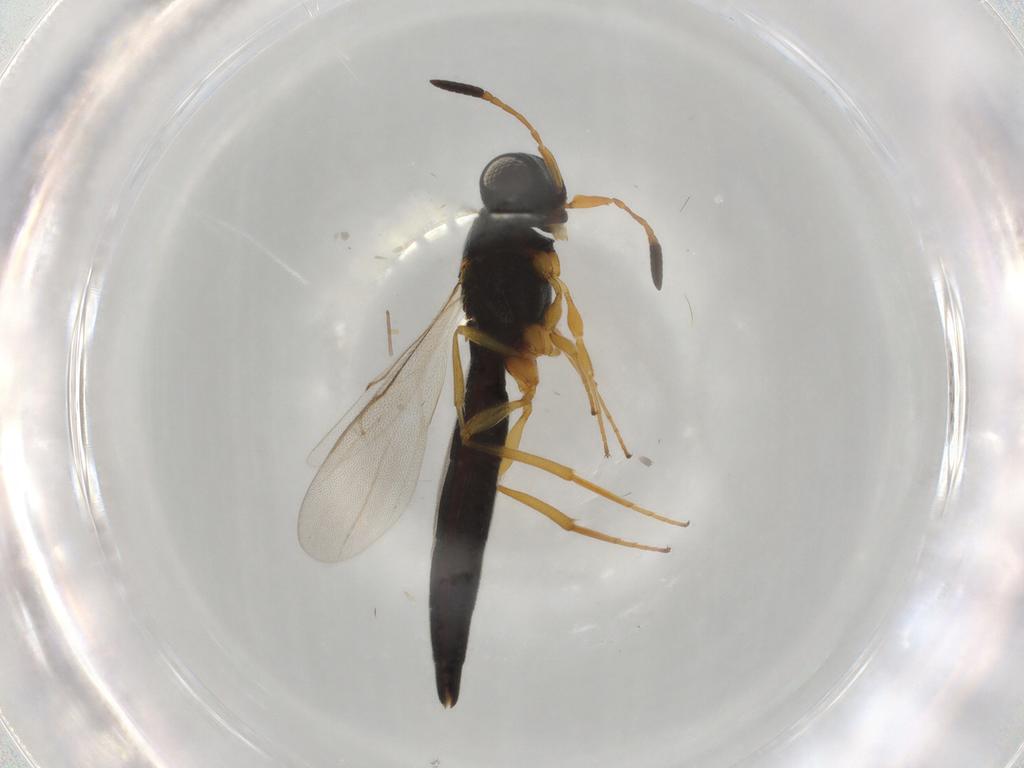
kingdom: Animalia
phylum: Arthropoda
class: Insecta
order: Hymenoptera
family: Scelionidae
